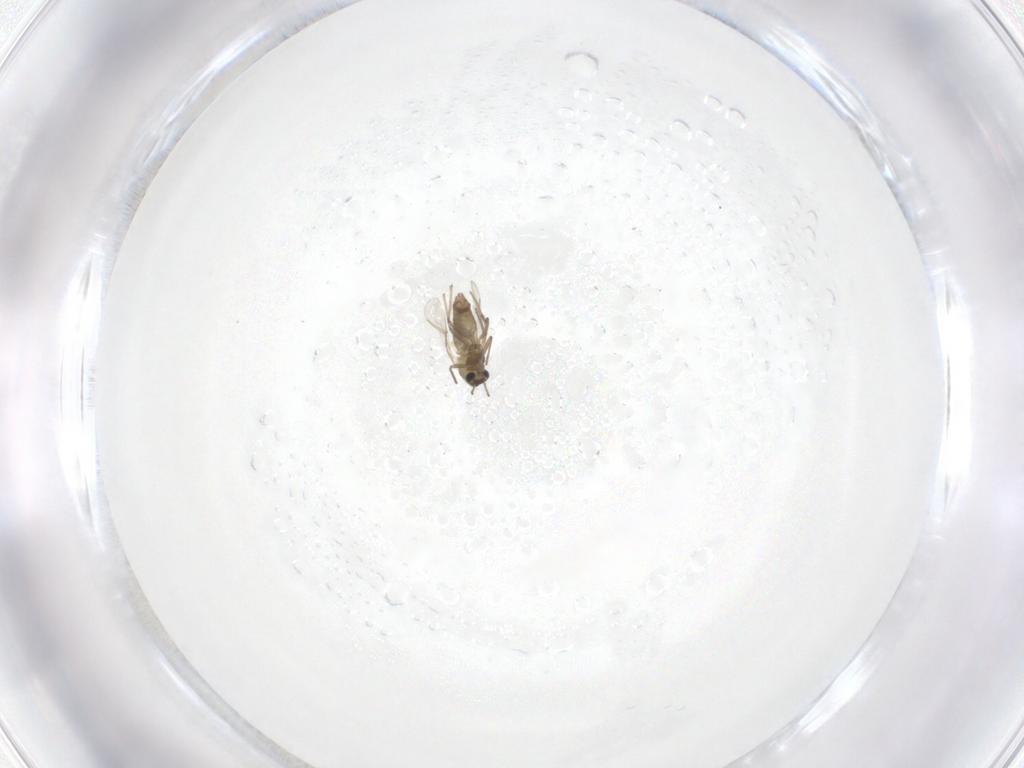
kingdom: Animalia
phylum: Arthropoda
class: Insecta
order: Diptera
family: Chironomidae
